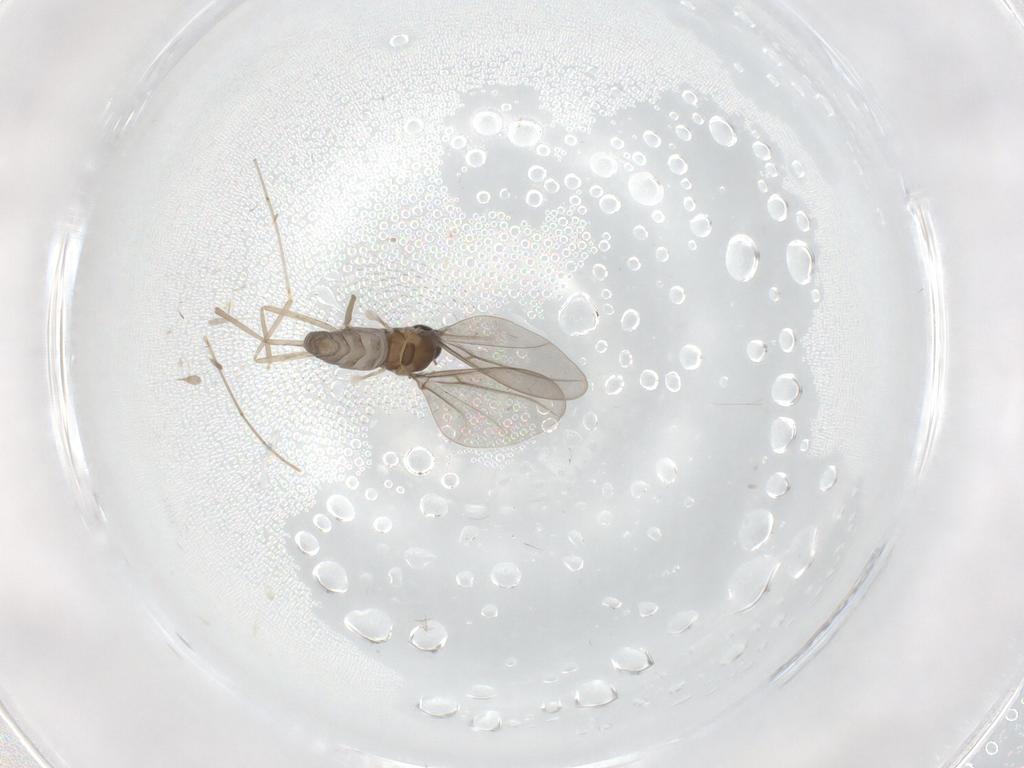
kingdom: Animalia
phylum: Arthropoda
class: Insecta
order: Diptera
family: Cecidomyiidae
